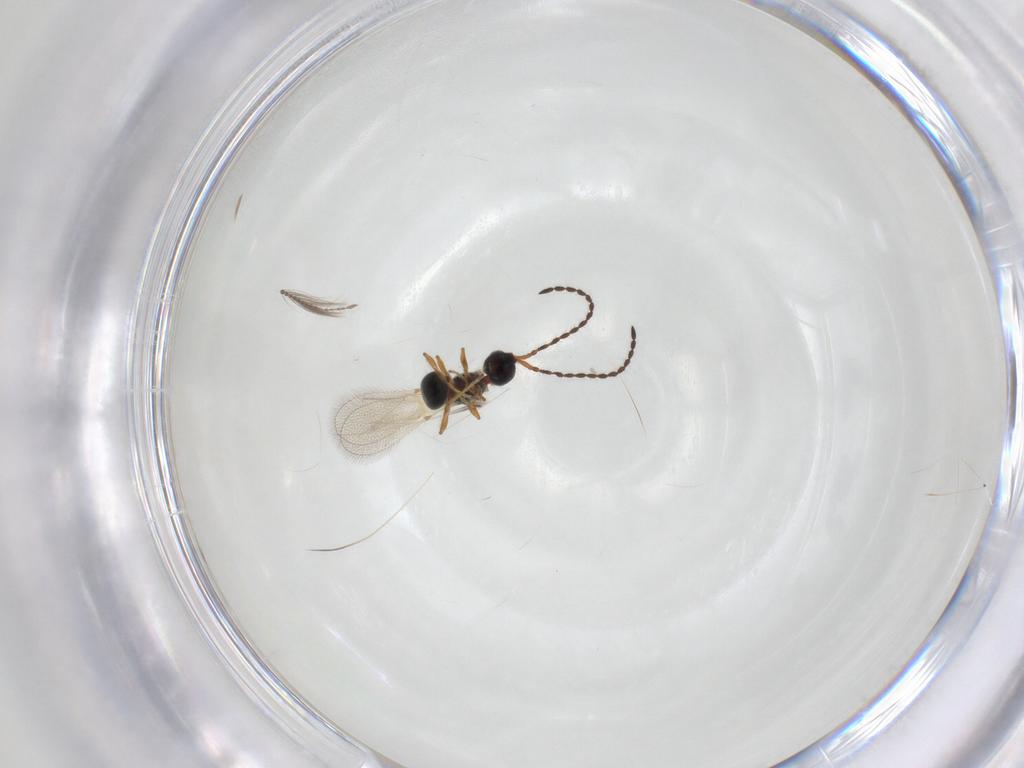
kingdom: Animalia
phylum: Arthropoda
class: Insecta
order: Hymenoptera
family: Diapriidae
